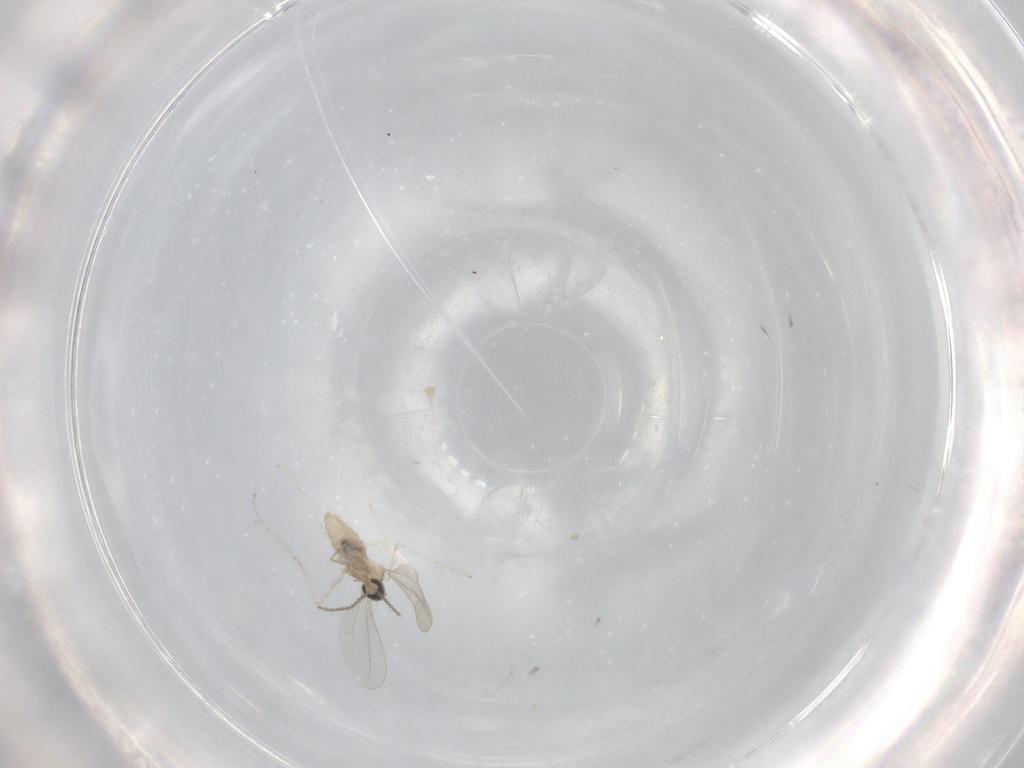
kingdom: Animalia
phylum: Arthropoda
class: Insecta
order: Diptera
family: Cecidomyiidae
